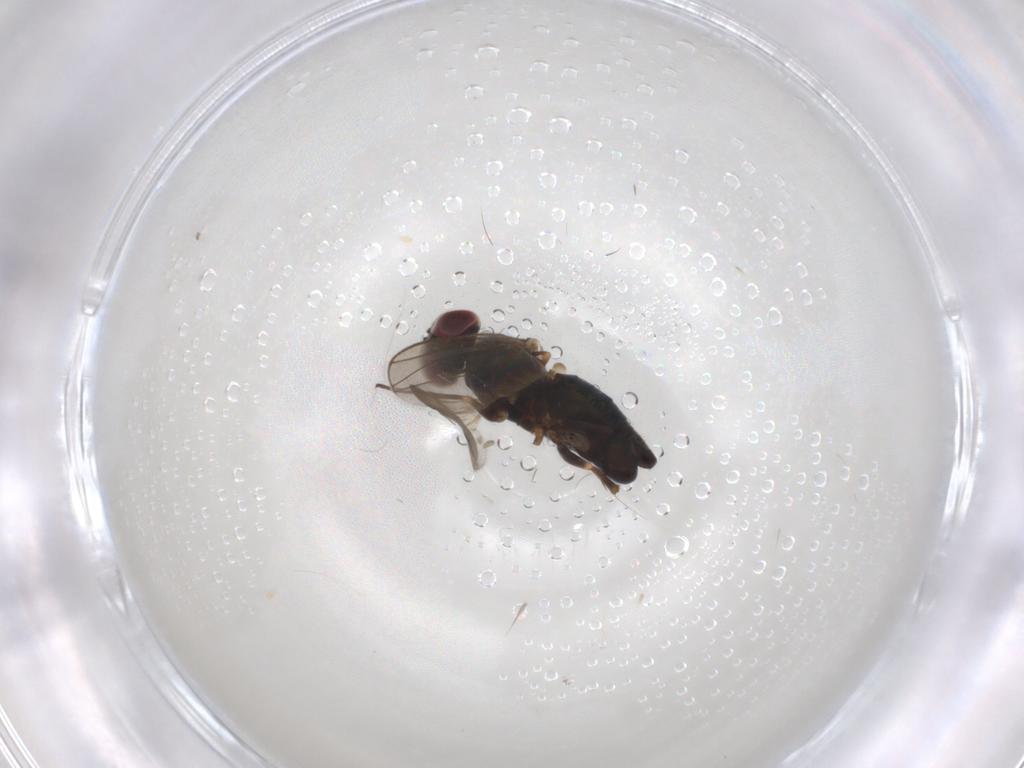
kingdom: Animalia
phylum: Arthropoda
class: Insecta
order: Diptera
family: Dolichopodidae
